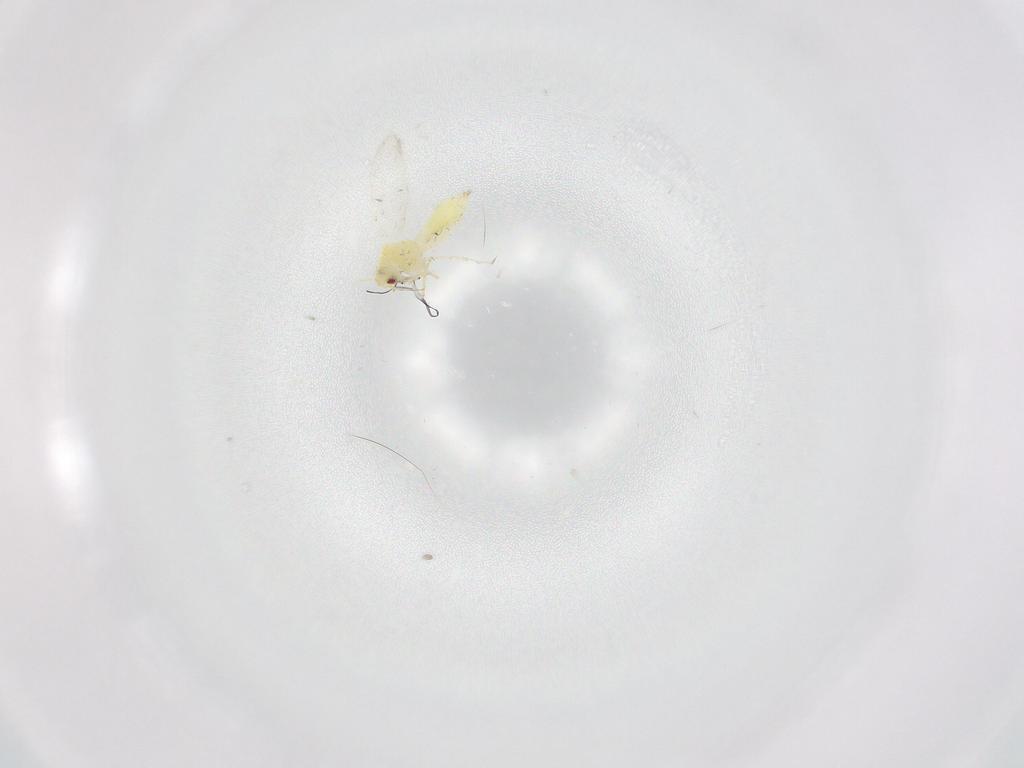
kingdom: Animalia
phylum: Arthropoda
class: Insecta
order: Hemiptera
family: Aleyrodidae
